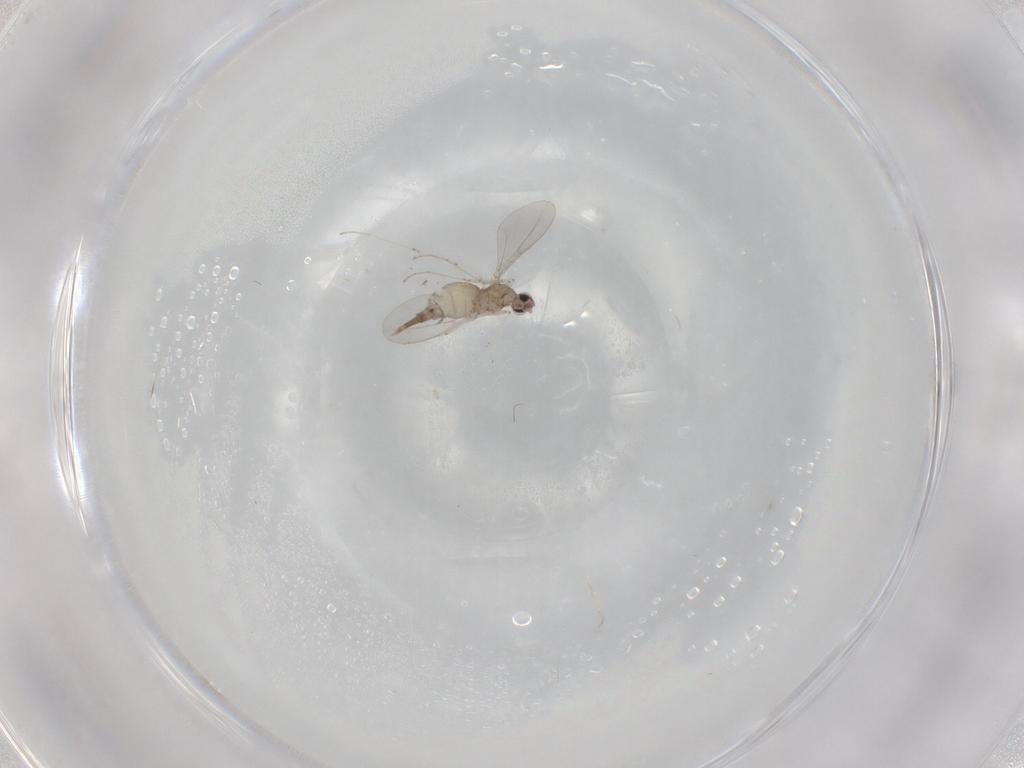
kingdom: Animalia
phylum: Arthropoda
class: Insecta
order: Diptera
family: Cecidomyiidae
